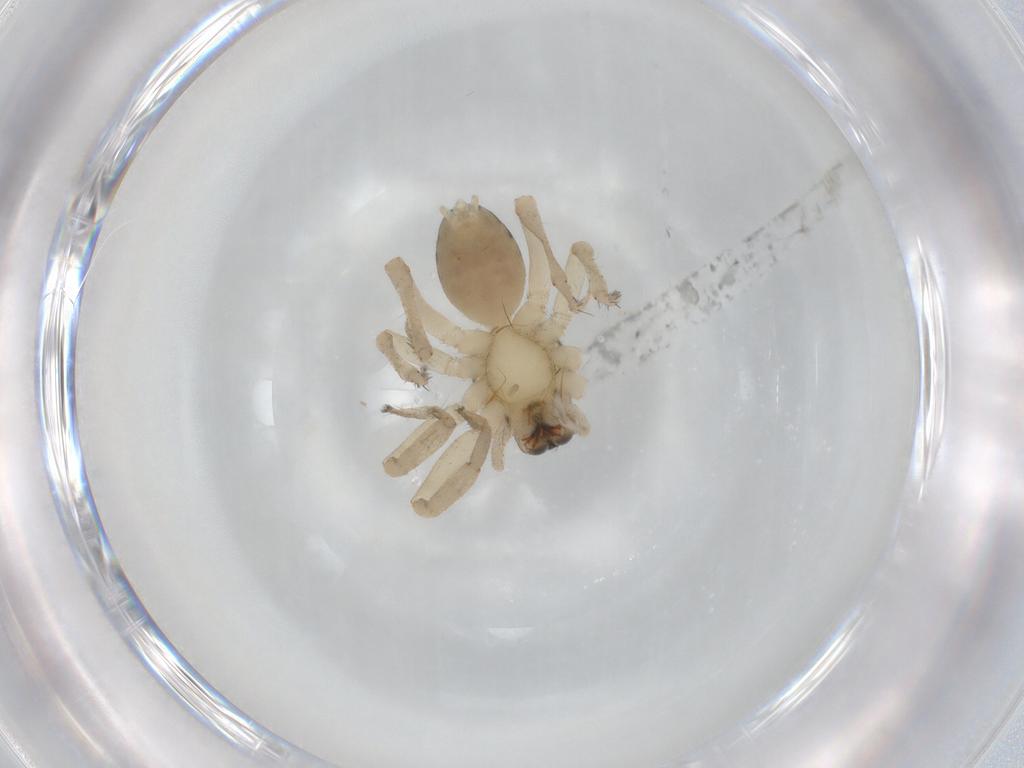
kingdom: Animalia
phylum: Arthropoda
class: Arachnida
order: Araneae
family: Anyphaenidae
